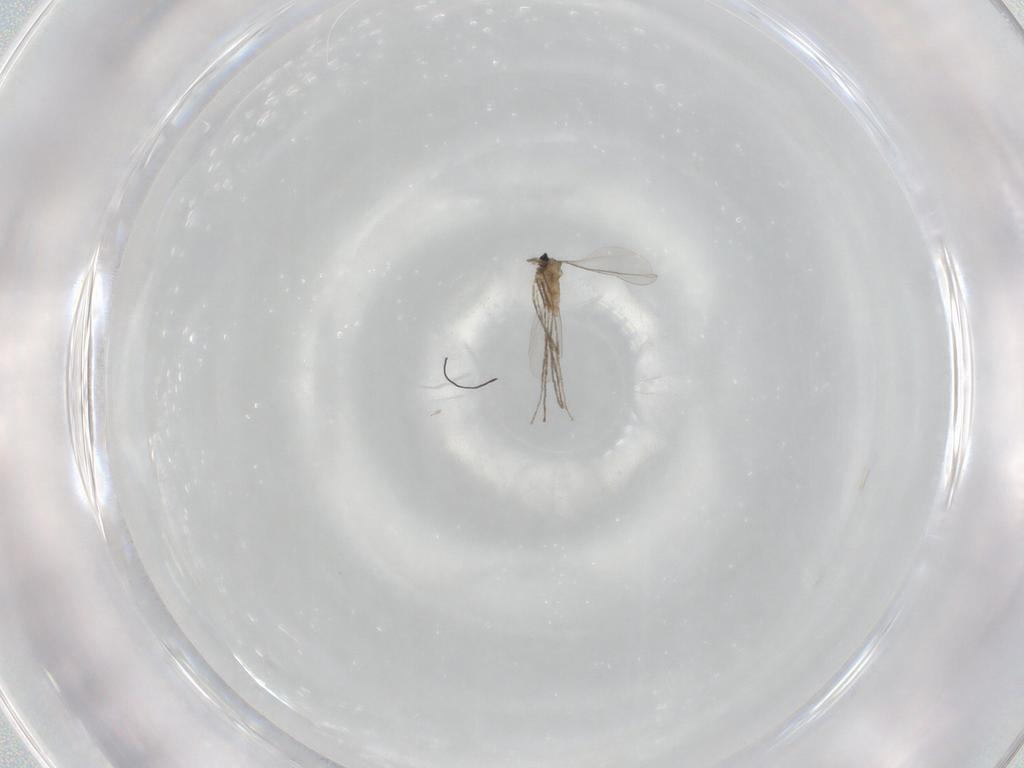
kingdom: Animalia
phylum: Arthropoda
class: Insecta
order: Diptera
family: Cecidomyiidae
